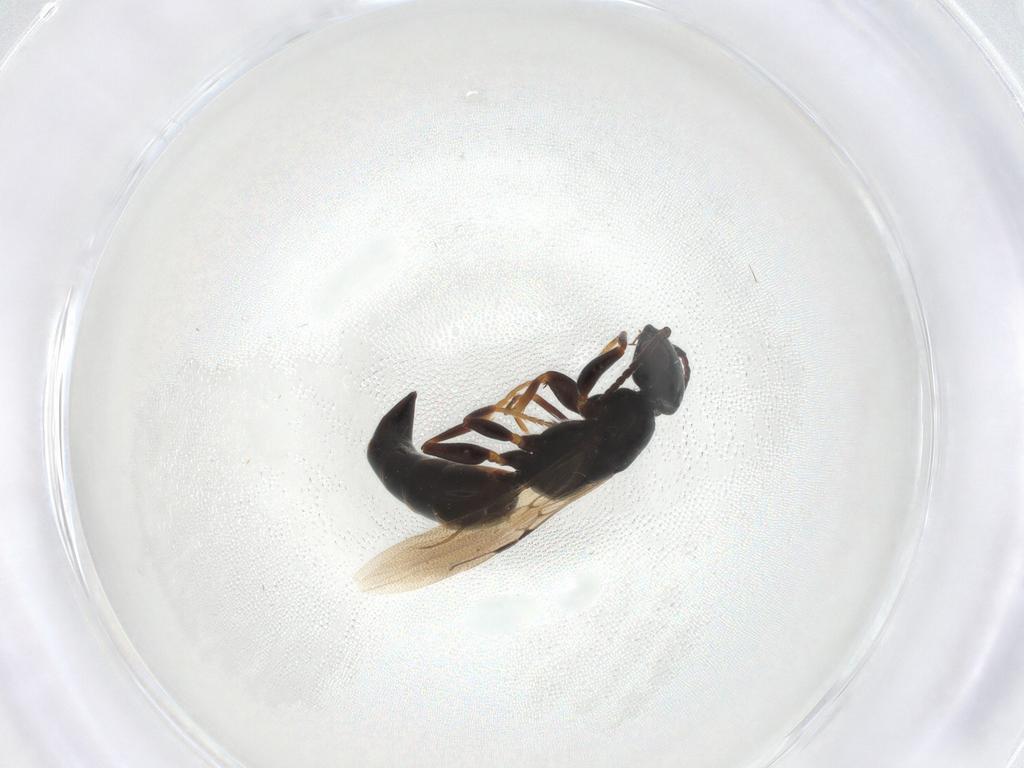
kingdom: Animalia
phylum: Arthropoda
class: Insecta
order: Hymenoptera
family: Bethylidae
